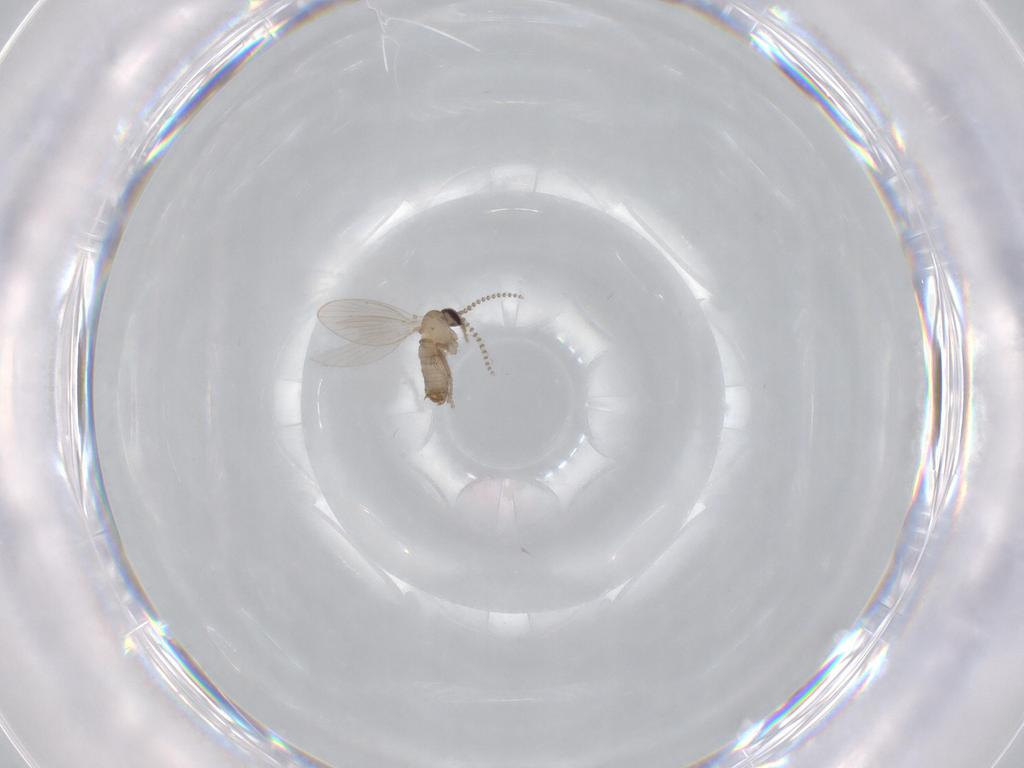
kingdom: Animalia
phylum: Arthropoda
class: Insecta
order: Diptera
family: Psychodidae
